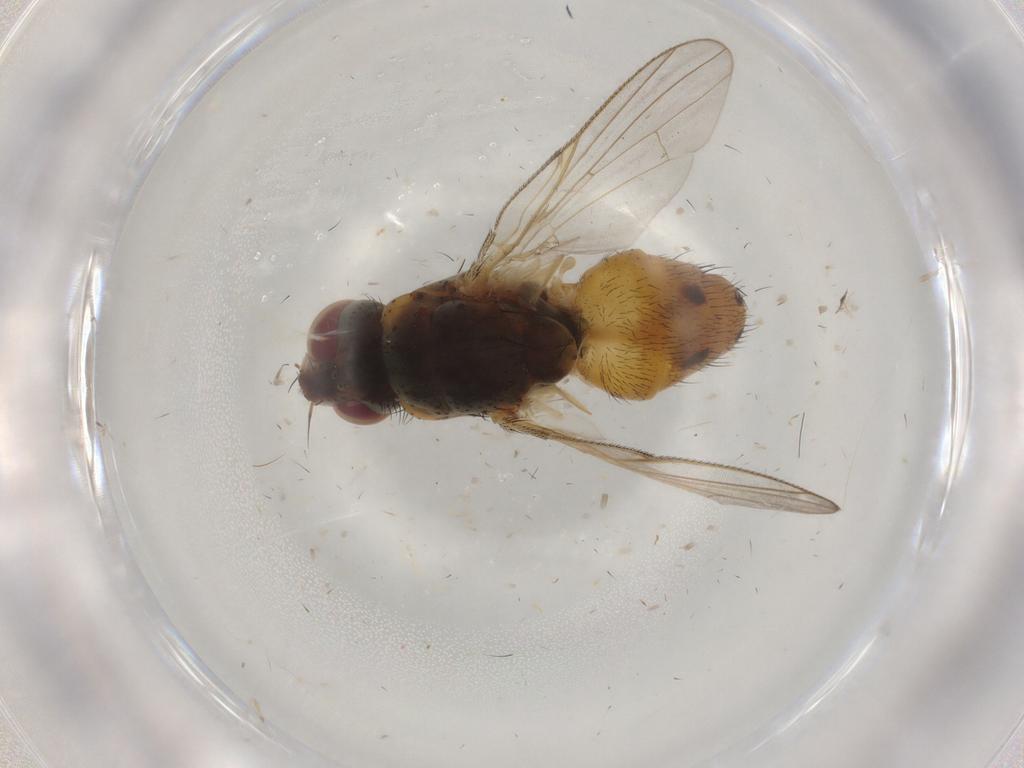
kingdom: Animalia
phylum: Arthropoda
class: Insecta
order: Diptera
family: Muscidae
